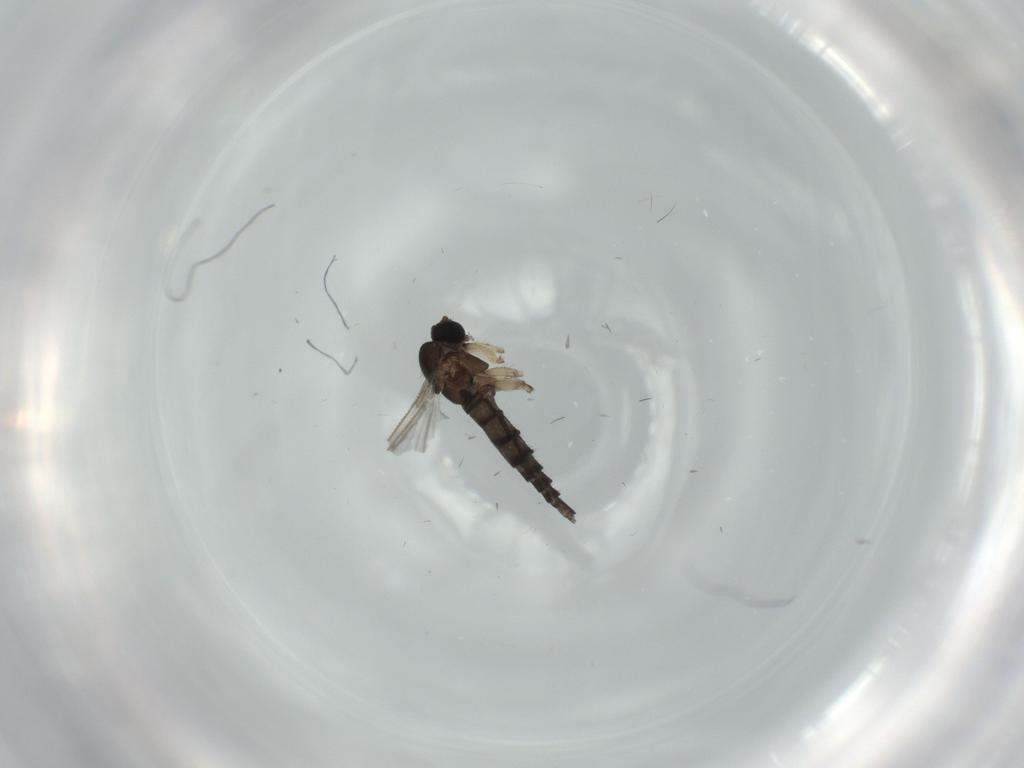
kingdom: Animalia
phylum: Arthropoda
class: Insecta
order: Diptera
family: Sciaridae
